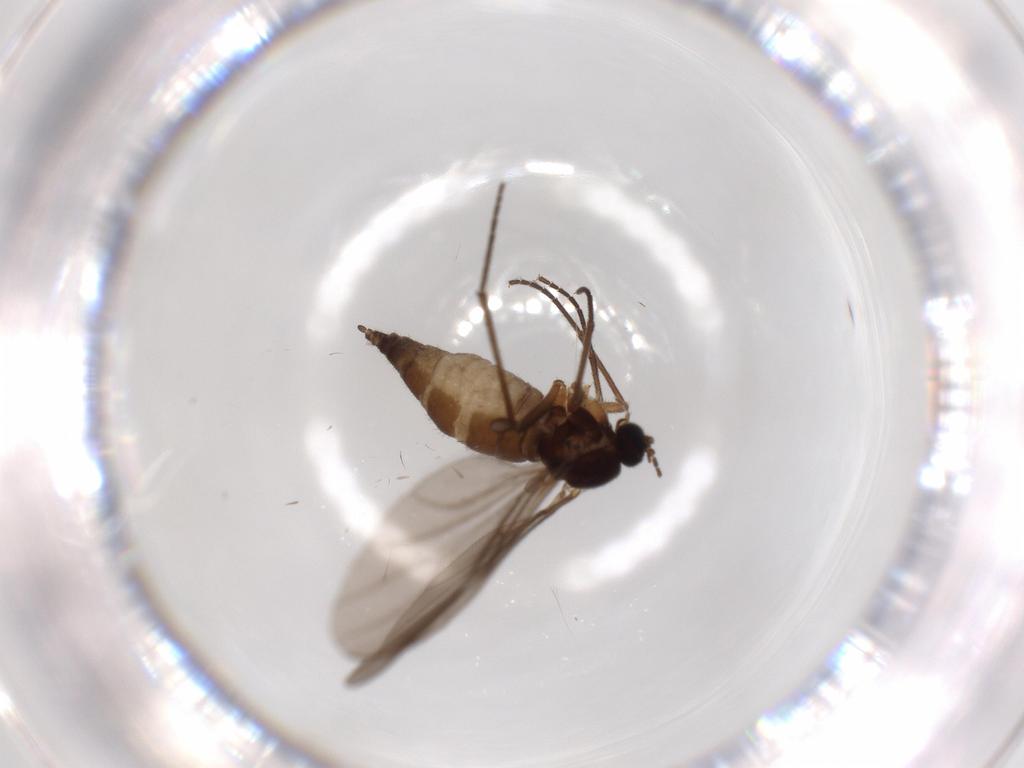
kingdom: Animalia
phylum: Arthropoda
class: Insecta
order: Diptera
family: Sciaridae
